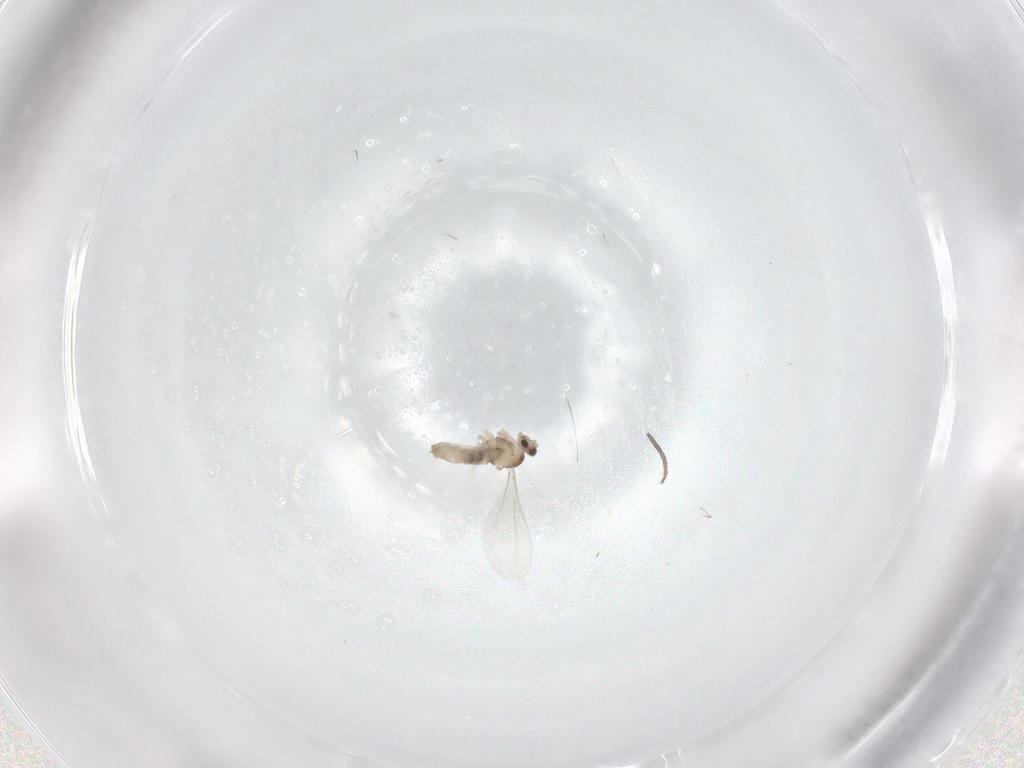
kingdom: Animalia
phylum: Arthropoda
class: Insecta
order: Diptera
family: Cecidomyiidae
